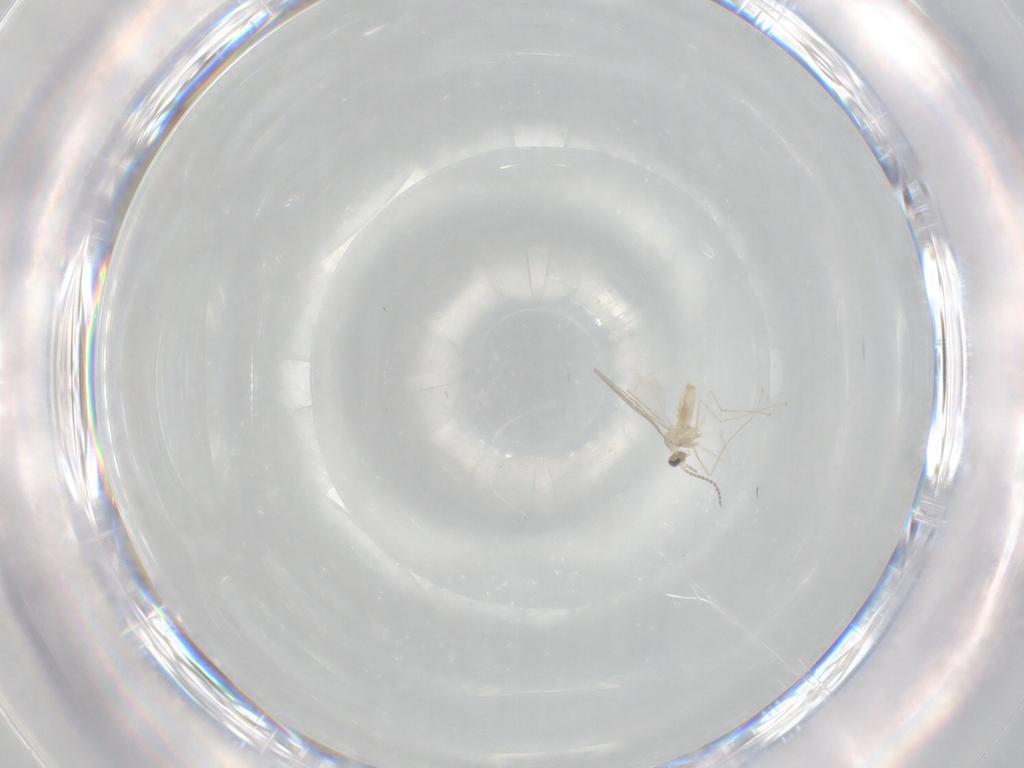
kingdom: Animalia
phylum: Arthropoda
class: Insecta
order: Diptera
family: Cecidomyiidae
